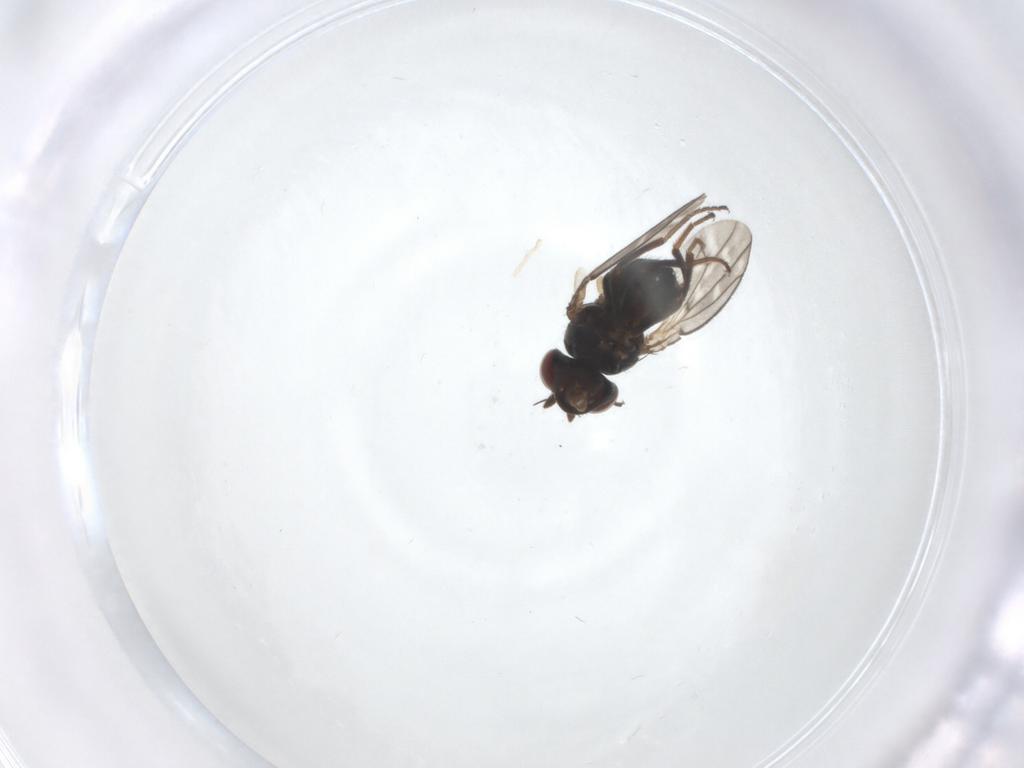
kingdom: Animalia
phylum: Arthropoda
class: Insecta
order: Diptera
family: Ephydridae
